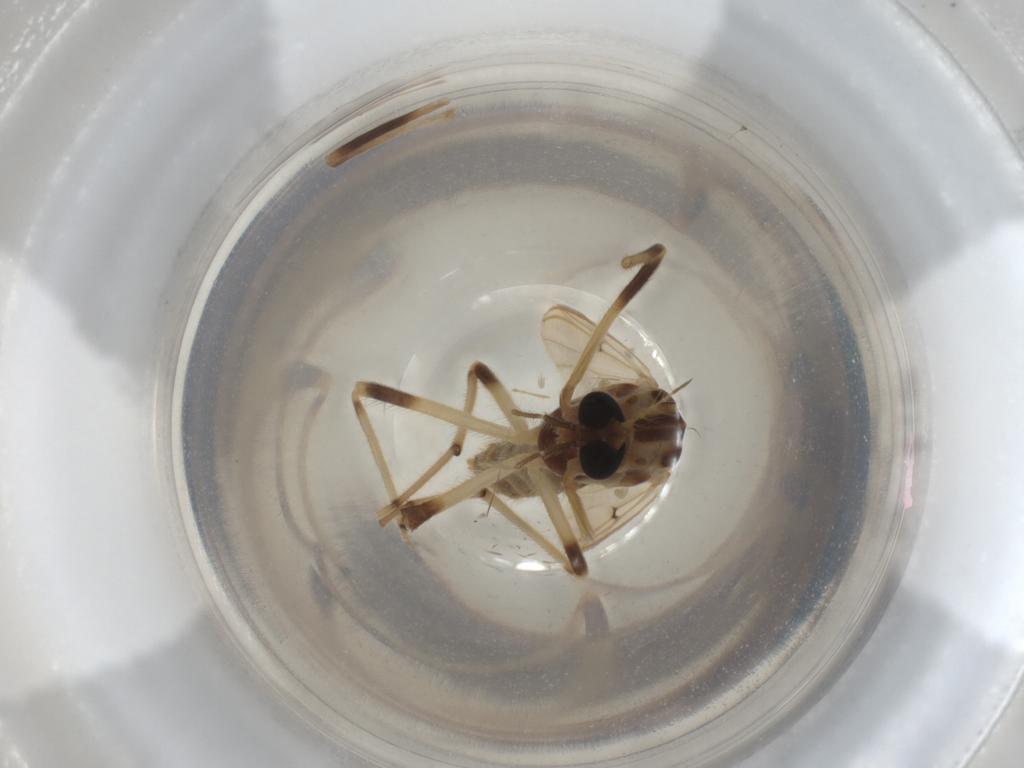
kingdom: Animalia
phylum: Arthropoda
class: Insecta
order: Diptera
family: Chironomidae
